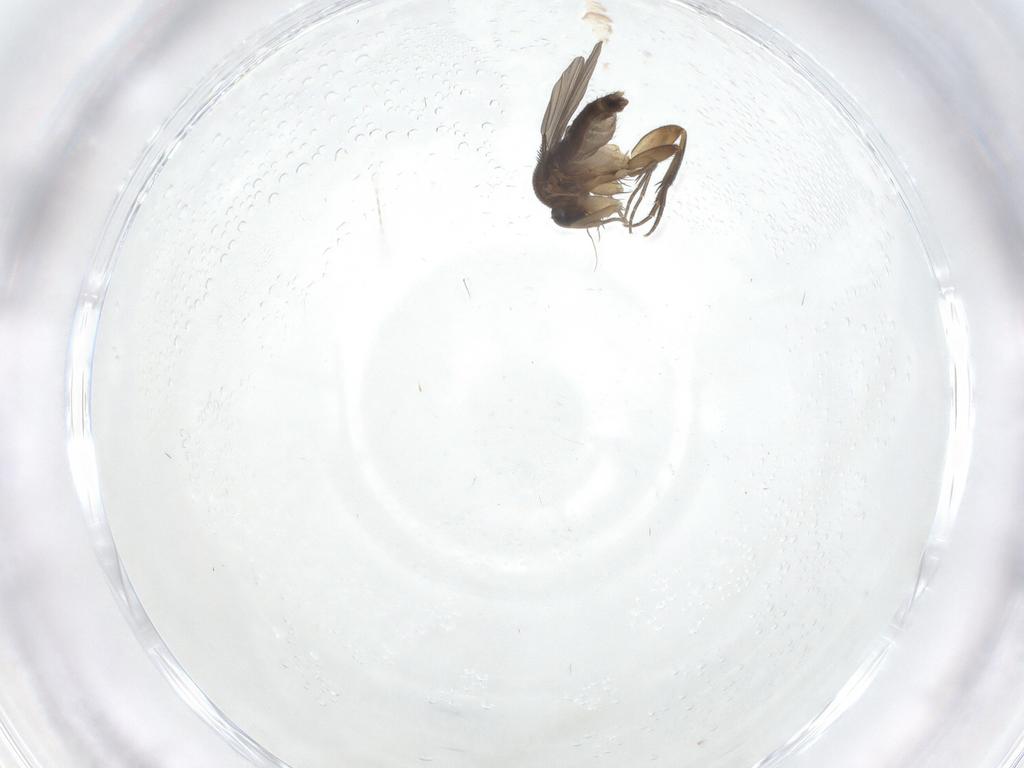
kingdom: Animalia
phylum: Arthropoda
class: Insecta
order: Diptera
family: Phoridae
